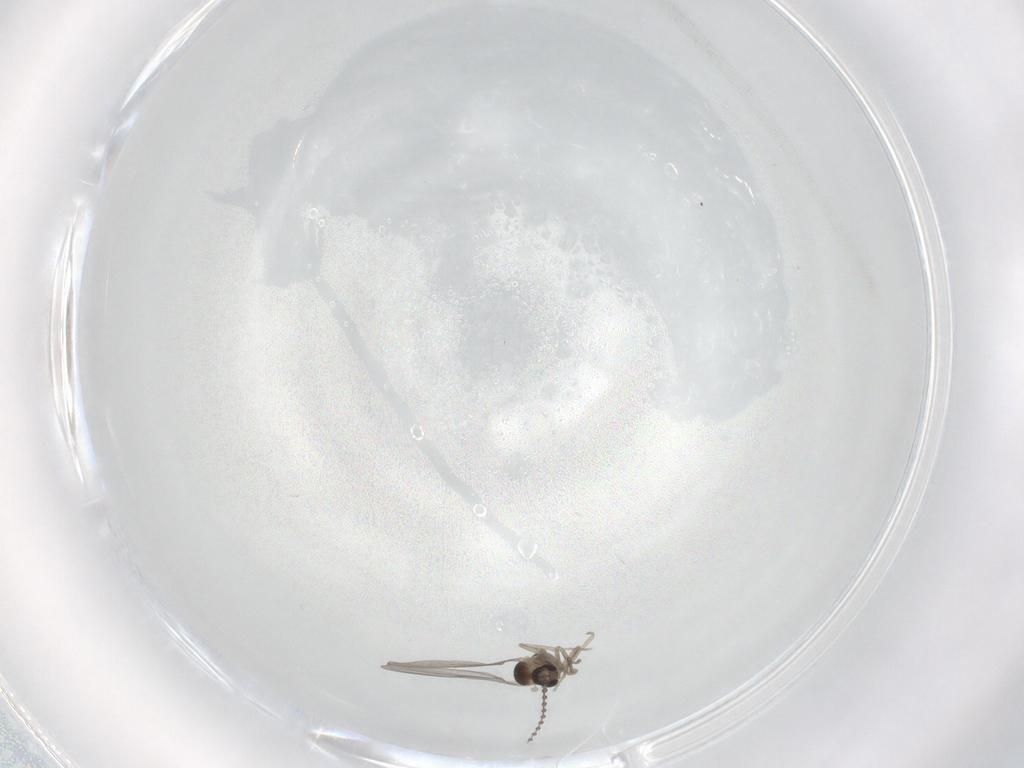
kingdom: Animalia
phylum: Arthropoda
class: Insecta
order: Diptera
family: Cecidomyiidae
